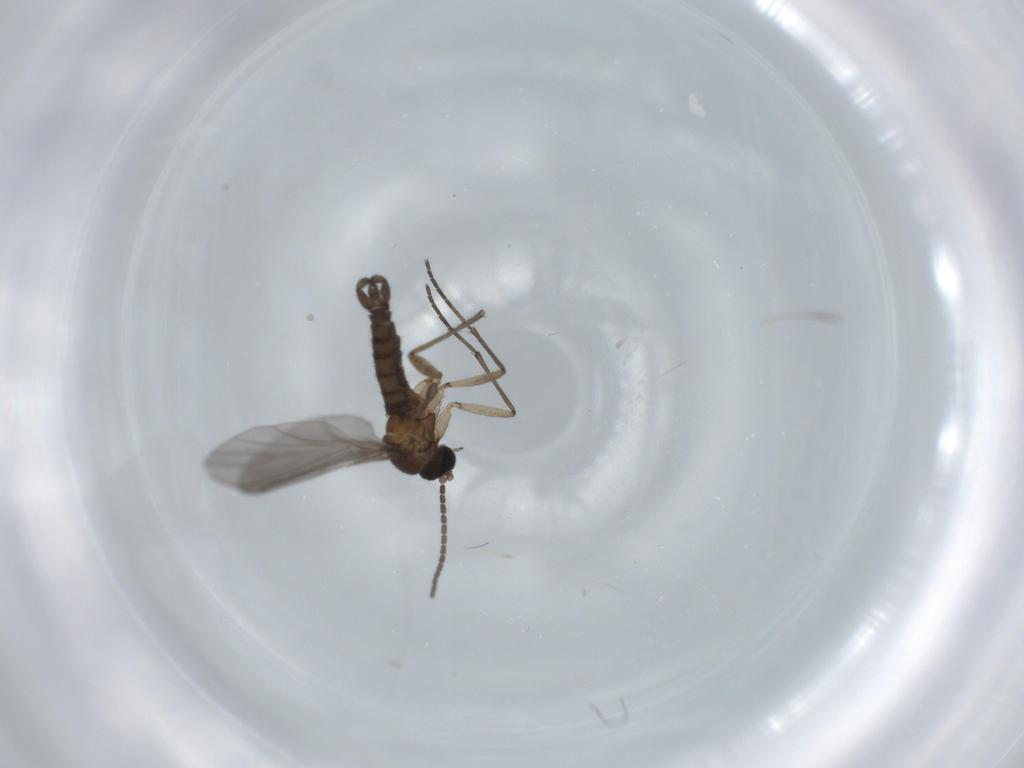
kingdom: Animalia
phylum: Arthropoda
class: Insecta
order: Diptera
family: Sciaridae
